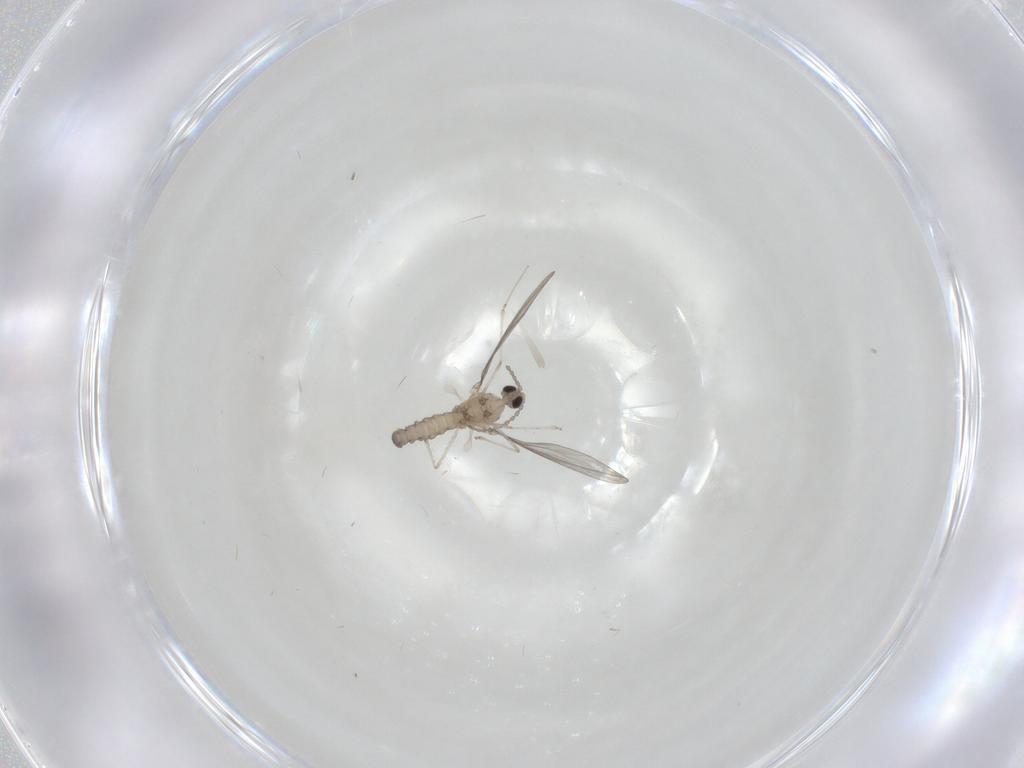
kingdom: Animalia
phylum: Arthropoda
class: Insecta
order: Diptera
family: Cecidomyiidae
